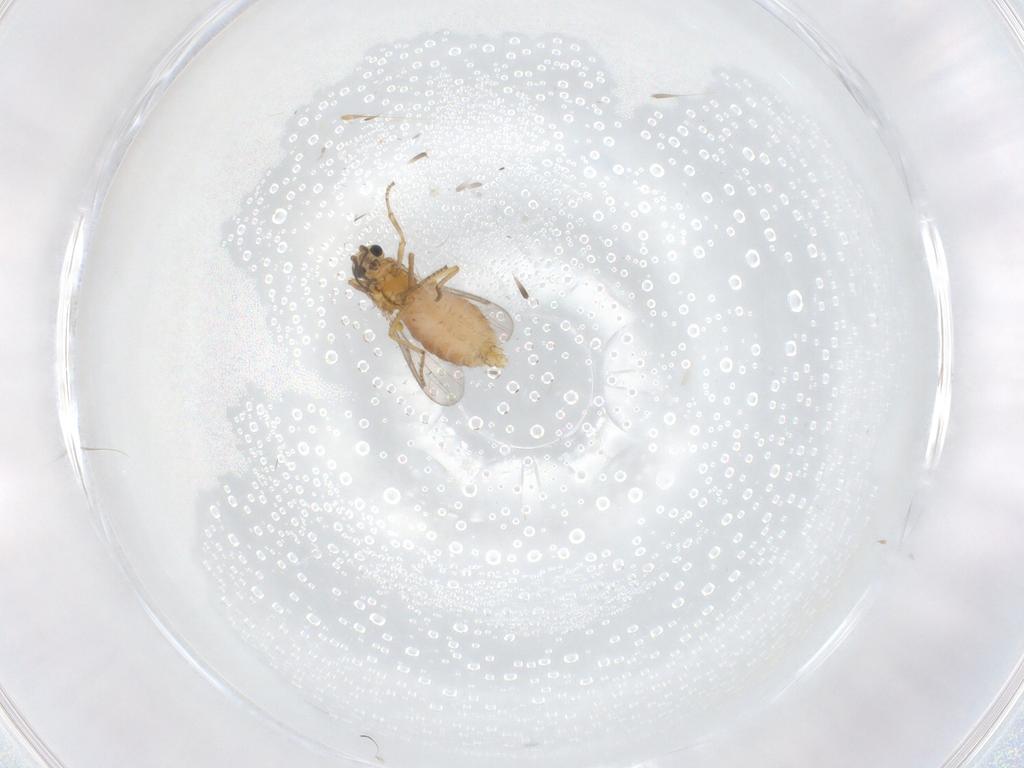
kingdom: Animalia
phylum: Arthropoda
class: Insecta
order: Diptera
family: Ceratopogonidae
